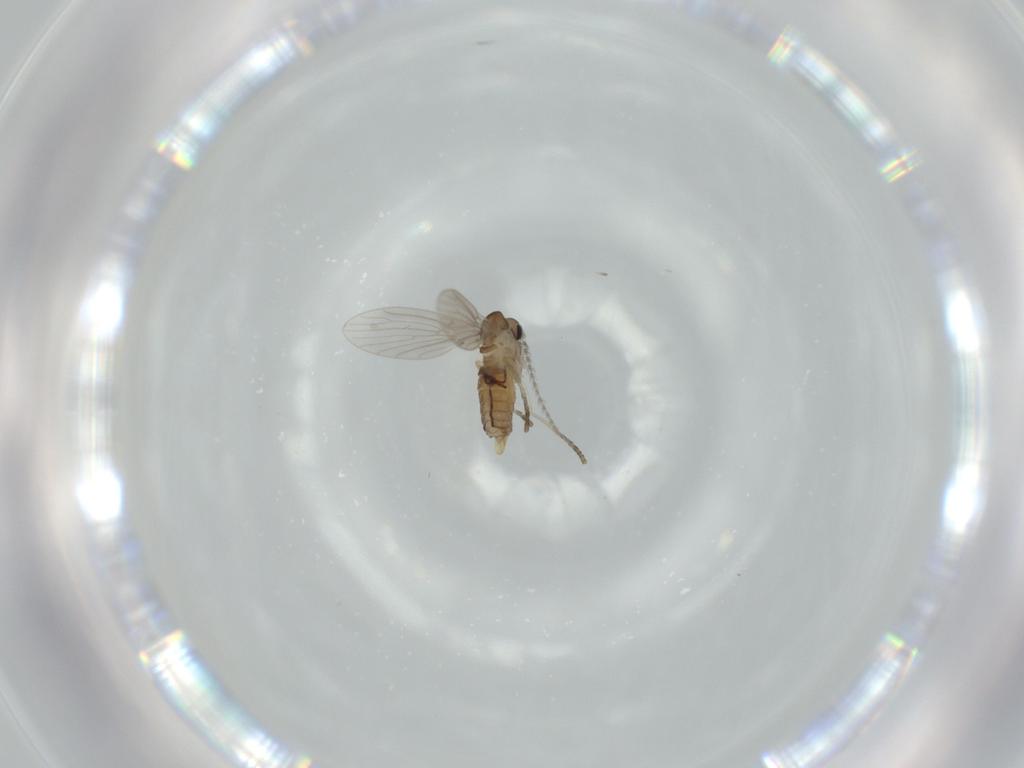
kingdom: Animalia
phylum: Arthropoda
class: Insecta
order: Diptera
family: Psychodidae
